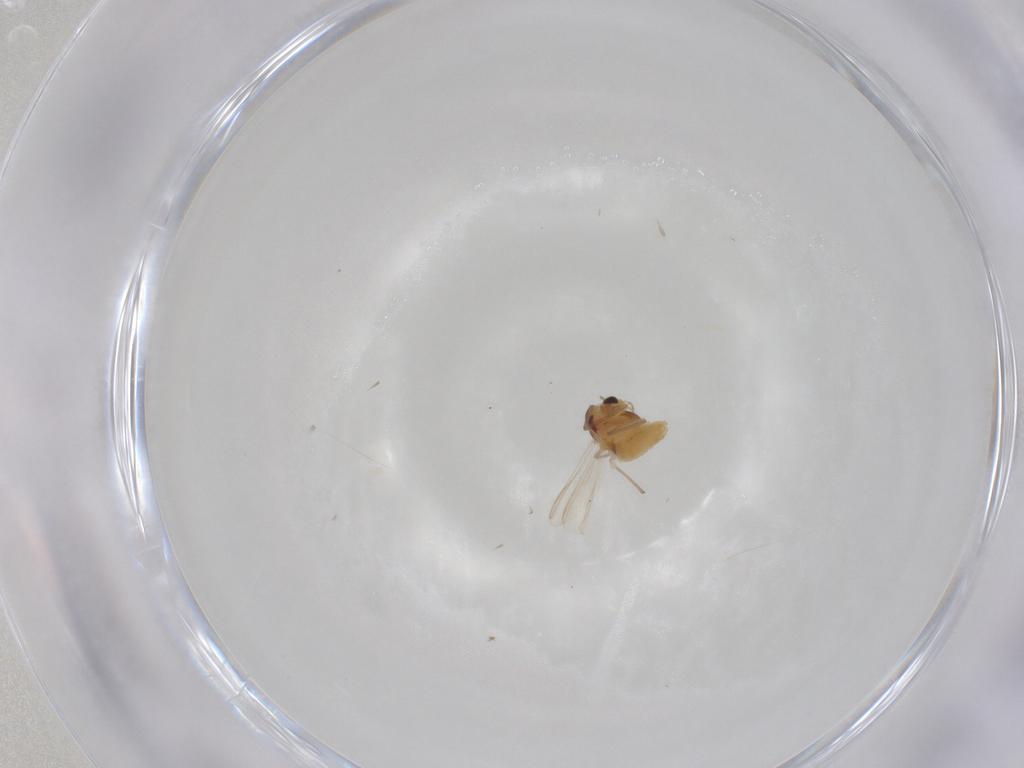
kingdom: Animalia
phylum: Arthropoda
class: Insecta
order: Diptera
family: Chironomidae
